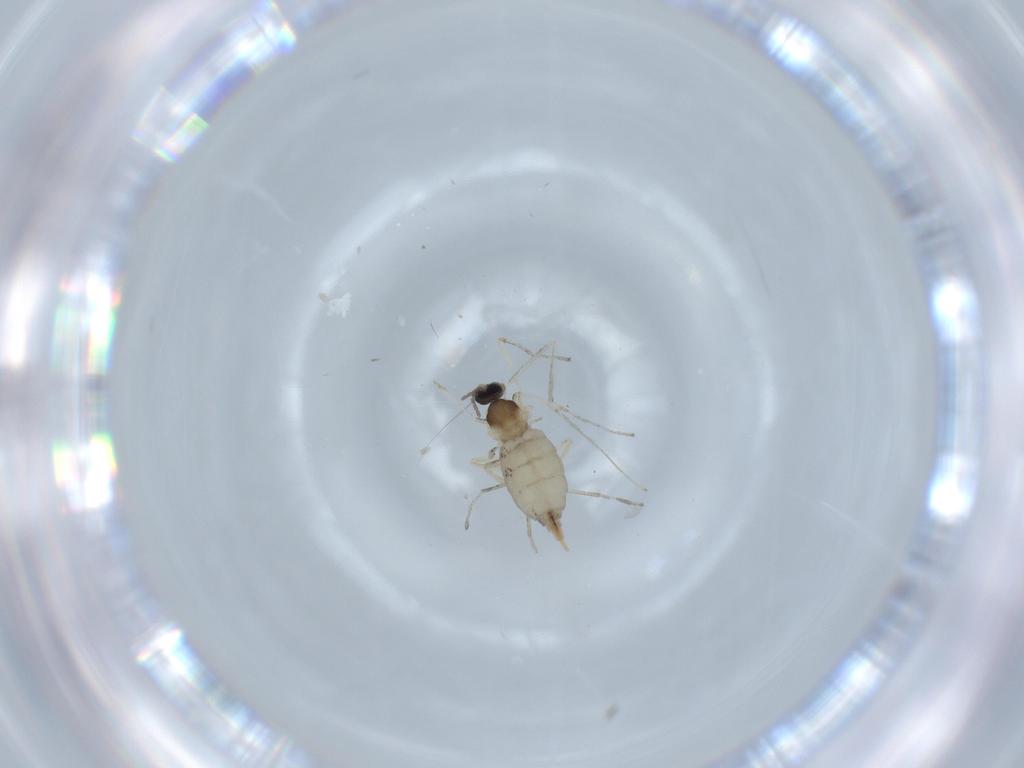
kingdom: Animalia
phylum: Arthropoda
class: Insecta
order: Diptera
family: Cecidomyiidae
